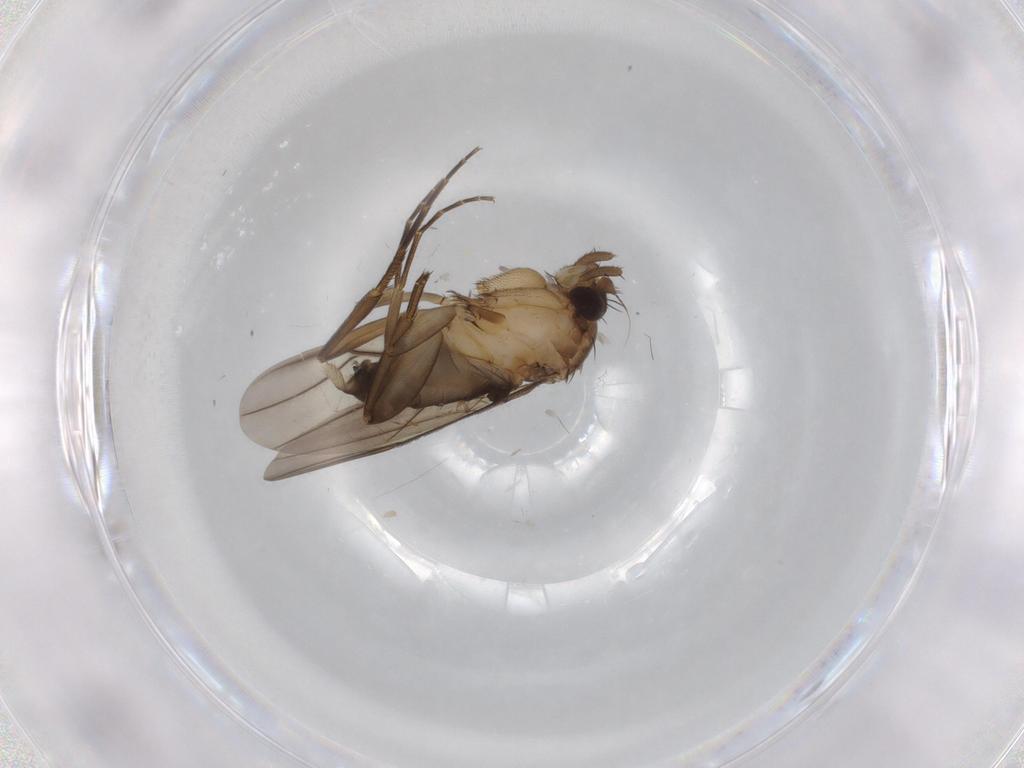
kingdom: Animalia
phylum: Arthropoda
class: Insecta
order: Diptera
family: Phoridae
